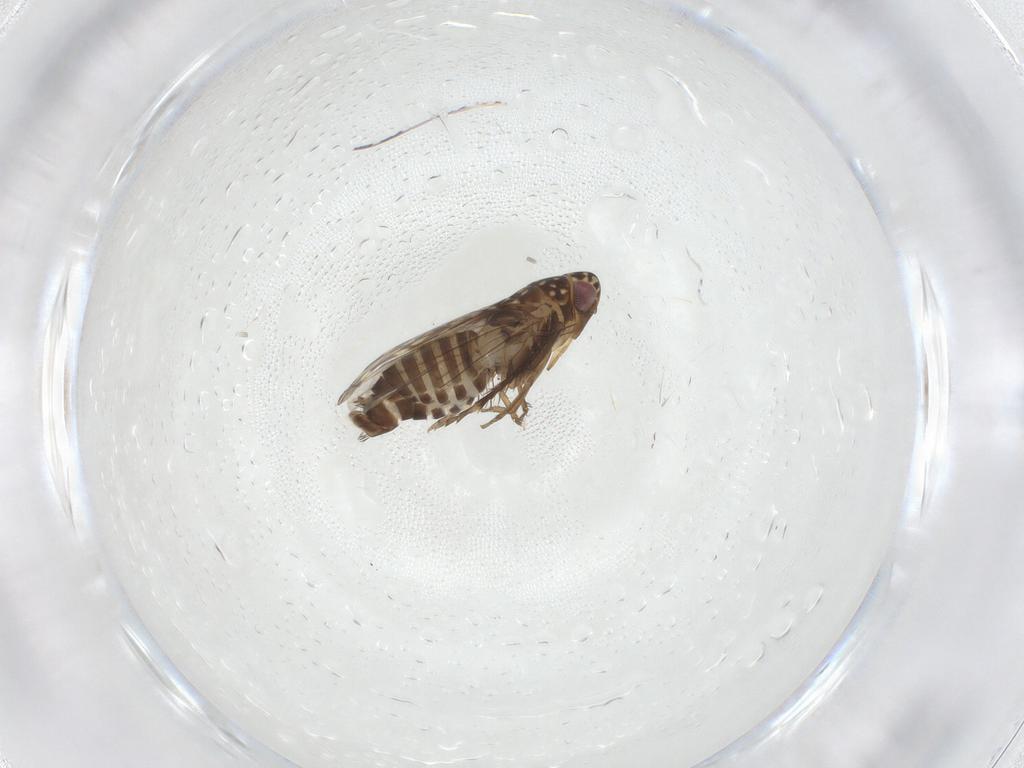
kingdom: Animalia
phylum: Arthropoda
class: Insecta
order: Hemiptera
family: Cicadellidae
